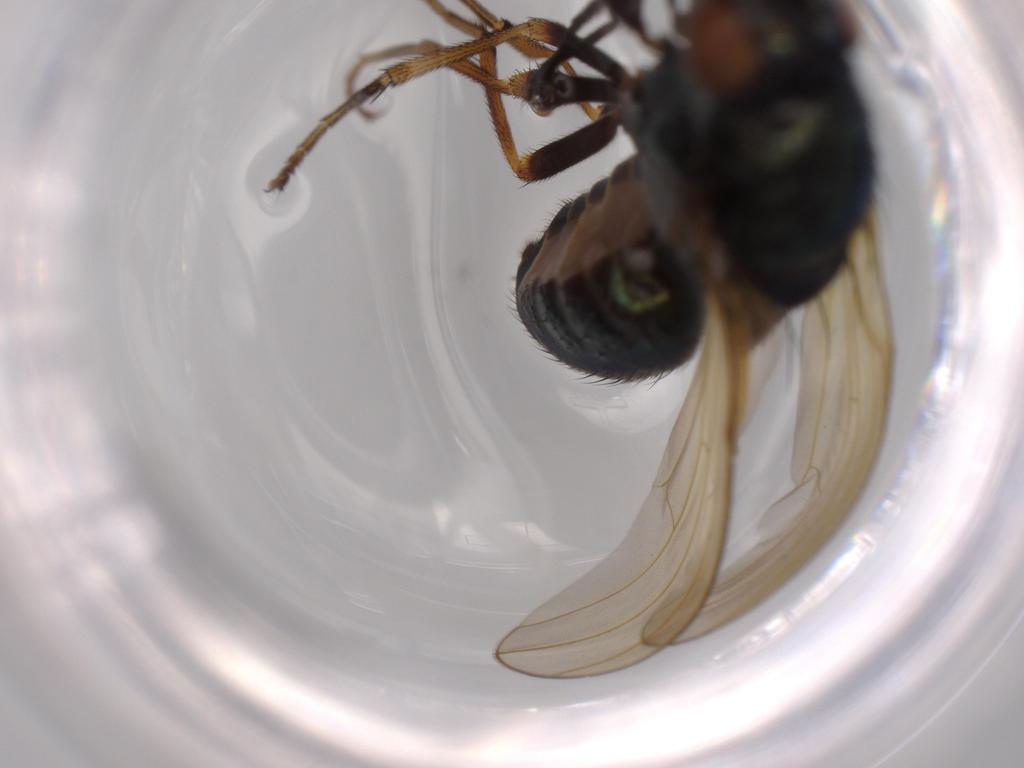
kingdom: Animalia
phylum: Arthropoda
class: Insecta
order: Diptera
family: Lauxaniidae
